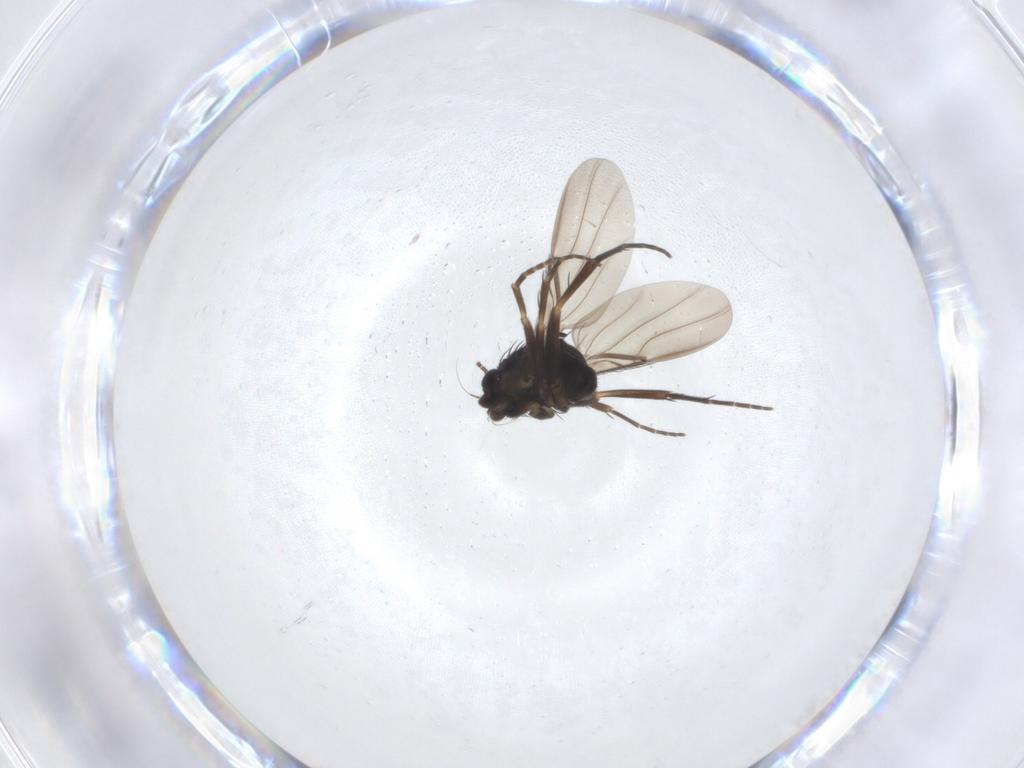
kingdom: Animalia
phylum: Arthropoda
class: Insecta
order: Diptera
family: Phoridae
